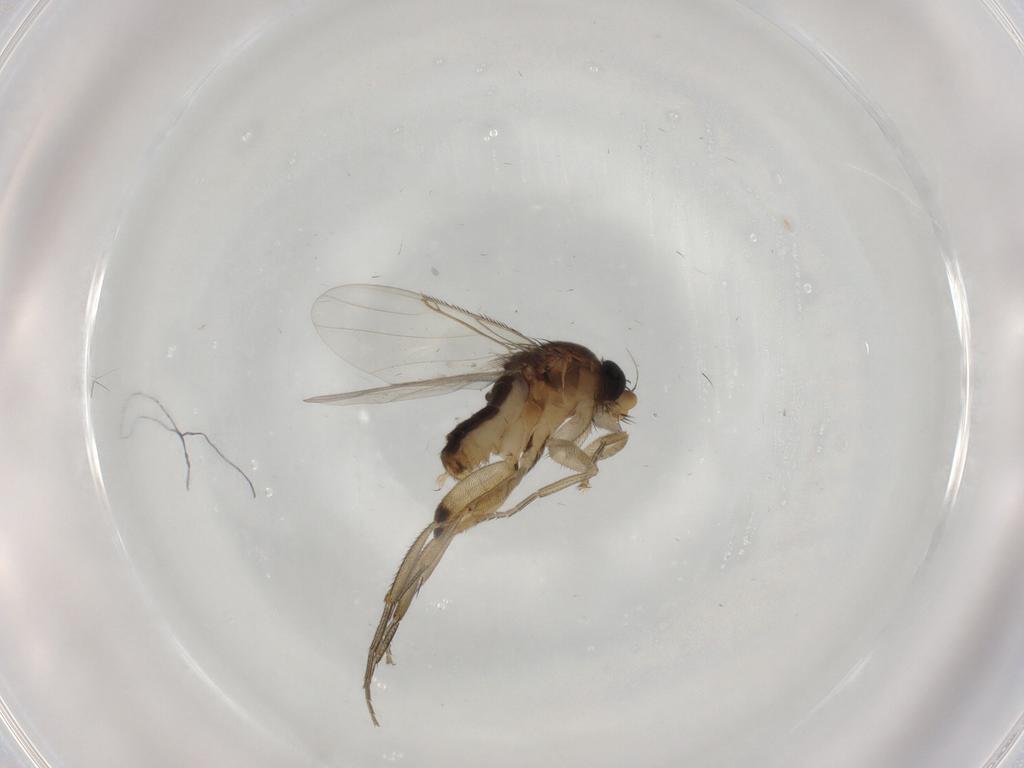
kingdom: Animalia
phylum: Arthropoda
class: Insecta
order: Diptera
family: Phoridae
